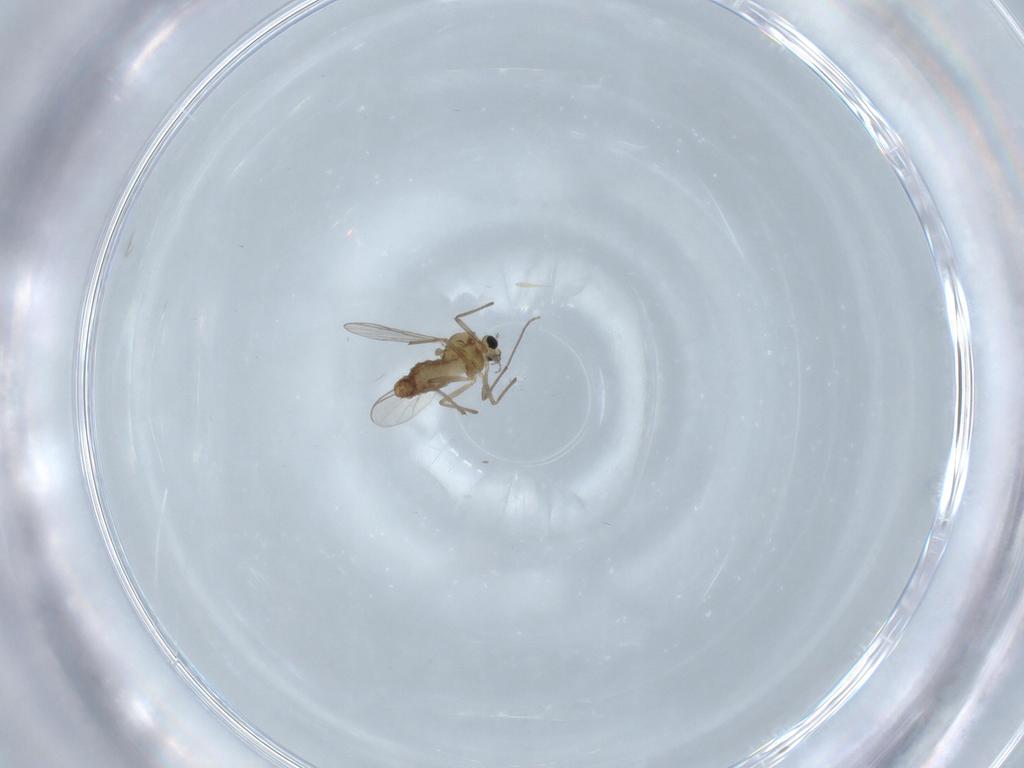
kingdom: Animalia
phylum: Arthropoda
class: Insecta
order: Diptera
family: Chironomidae
